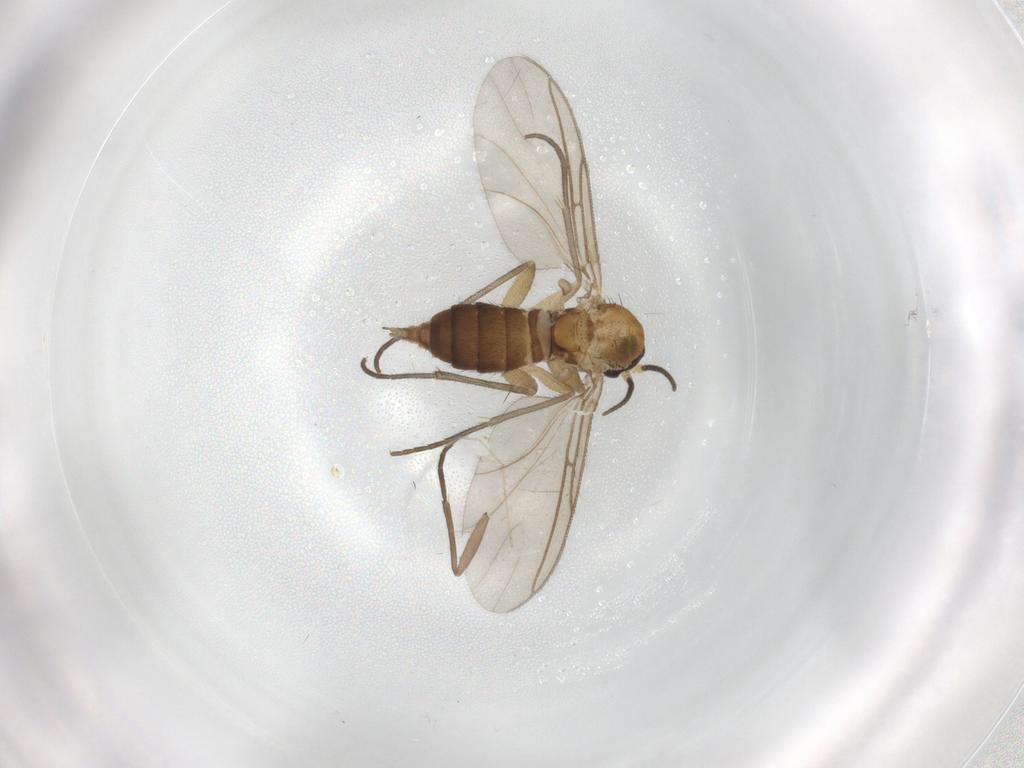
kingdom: Animalia
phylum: Arthropoda
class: Insecta
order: Diptera
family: Sciaridae
